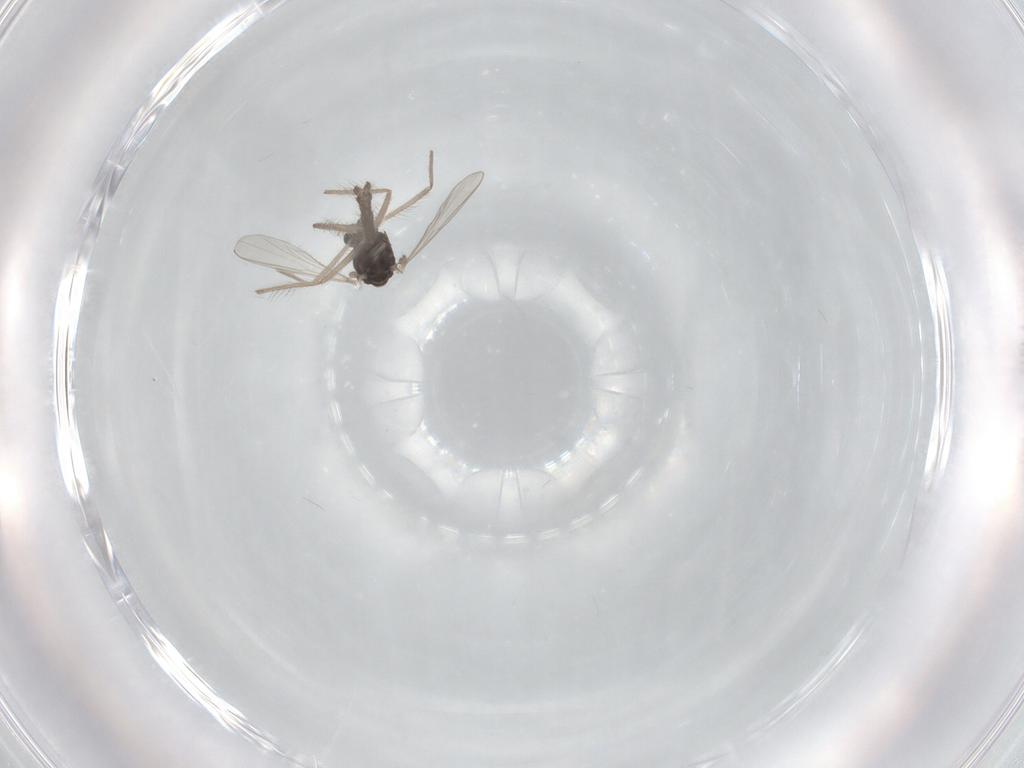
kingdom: Animalia
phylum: Arthropoda
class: Insecta
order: Diptera
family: Chironomidae
